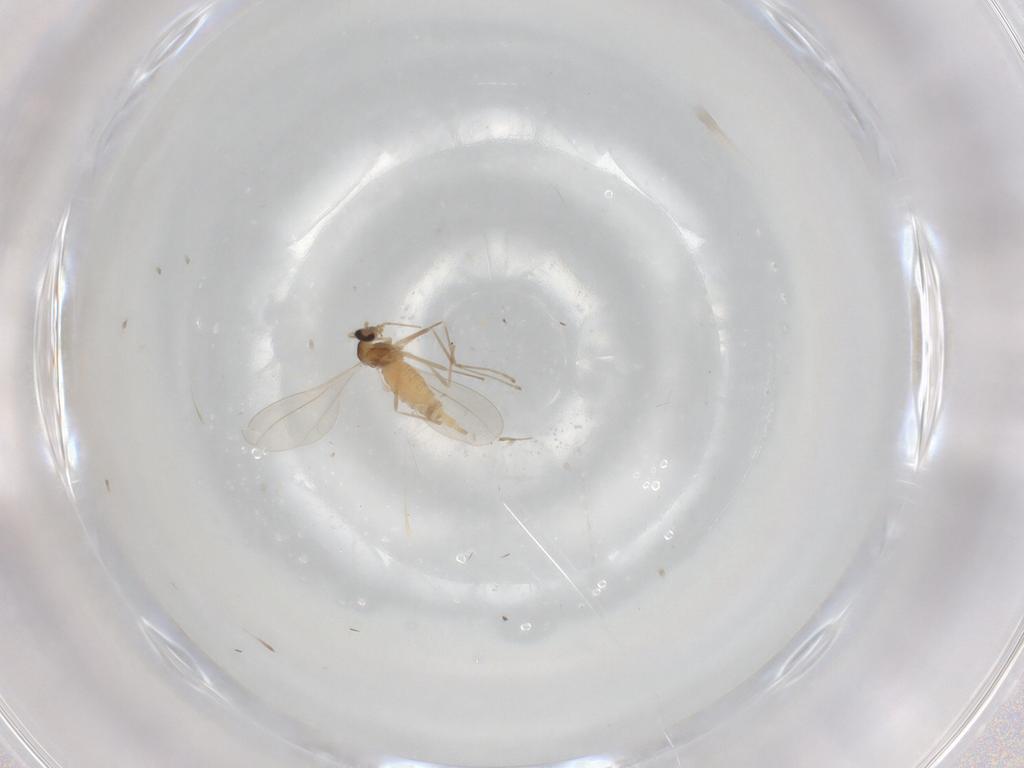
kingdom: Animalia
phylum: Arthropoda
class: Insecta
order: Diptera
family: Cecidomyiidae
